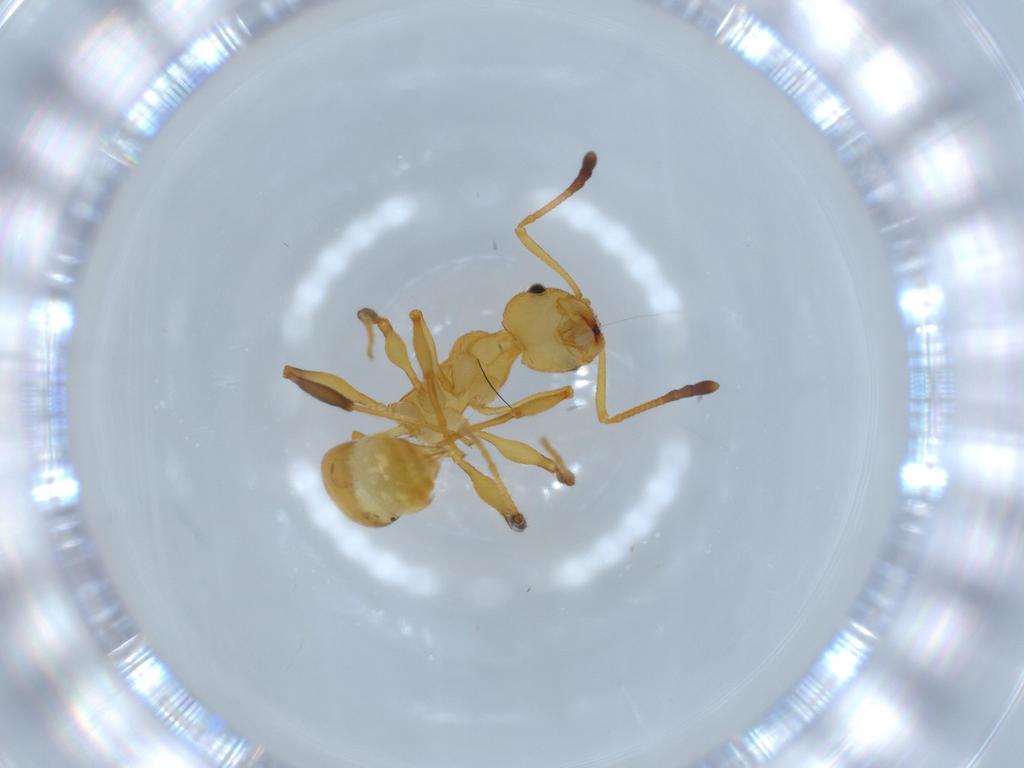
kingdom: Animalia
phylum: Arthropoda
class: Insecta
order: Hymenoptera
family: Formicidae
